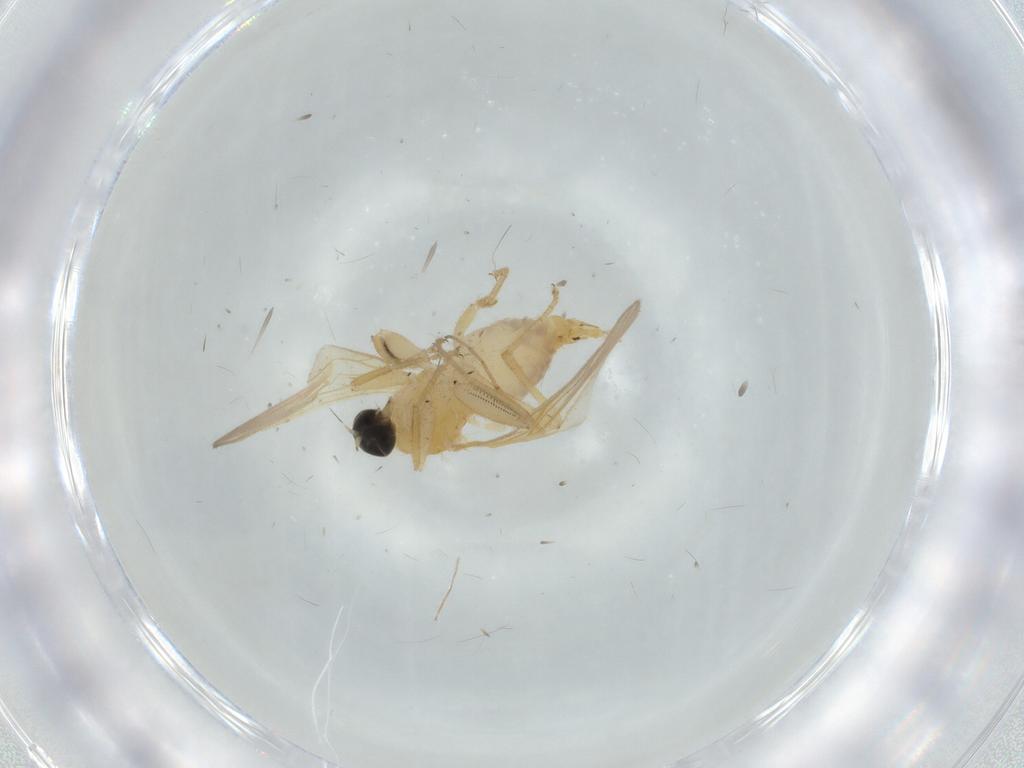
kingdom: Animalia
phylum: Arthropoda
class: Insecta
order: Diptera
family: Hybotidae
